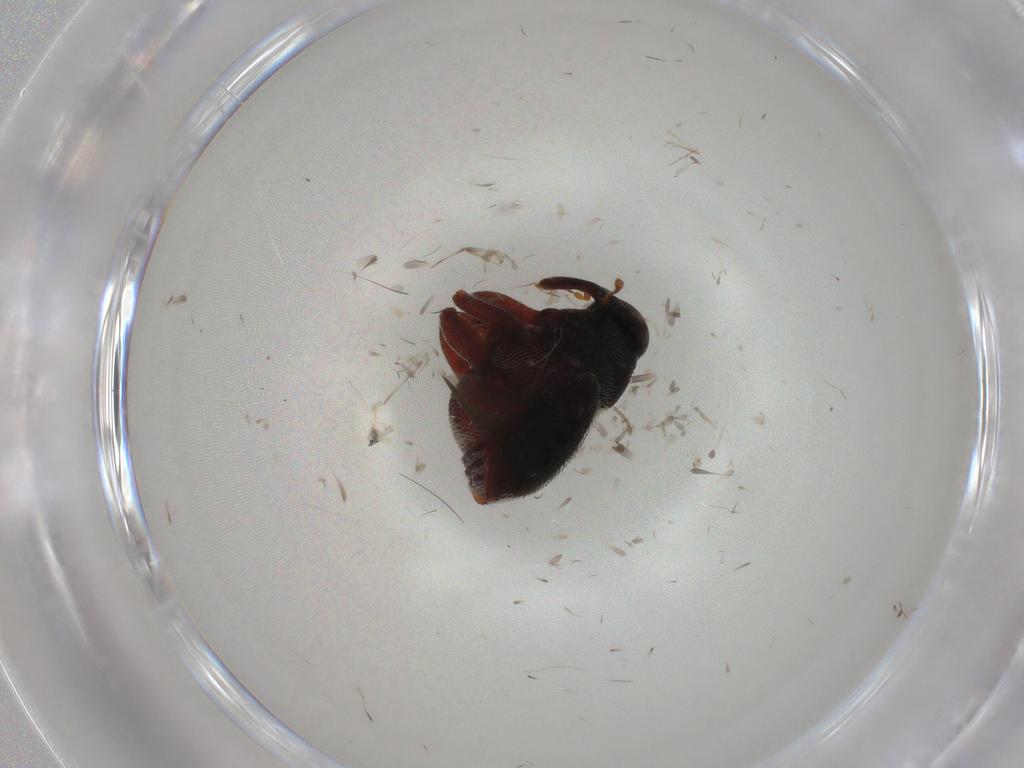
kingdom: Animalia
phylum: Arthropoda
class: Insecta
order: Coleoptera
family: Curculionidae
